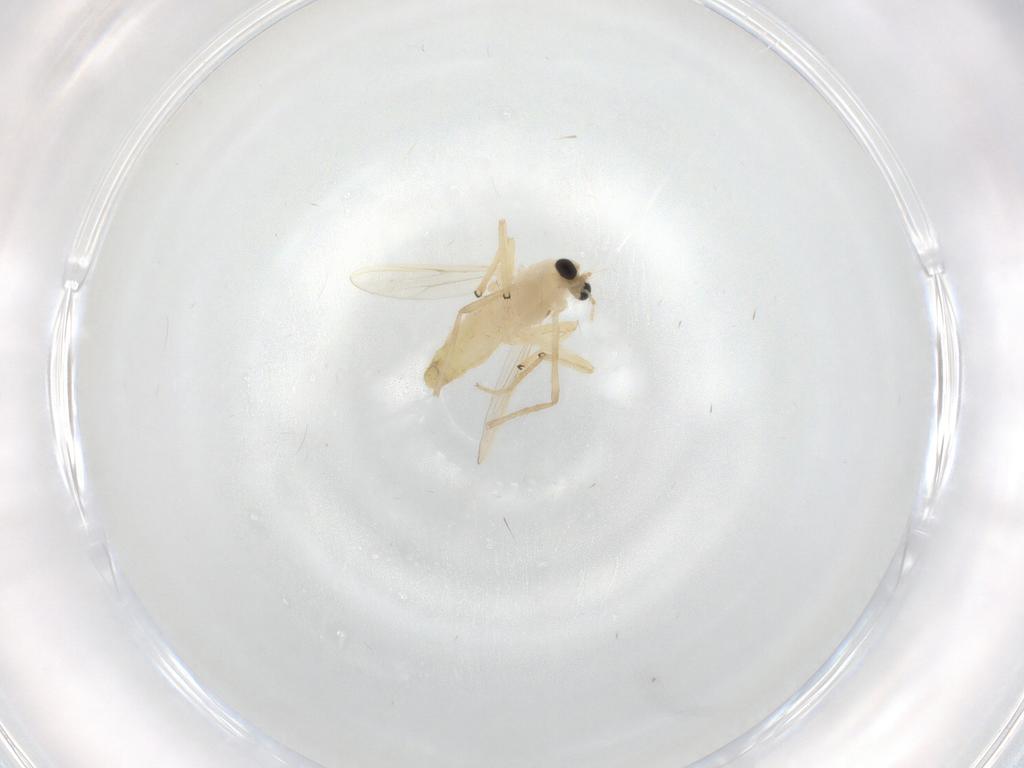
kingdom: Animalia
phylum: Arthropoda
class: Insecta
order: Diptera
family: Chironomidae
